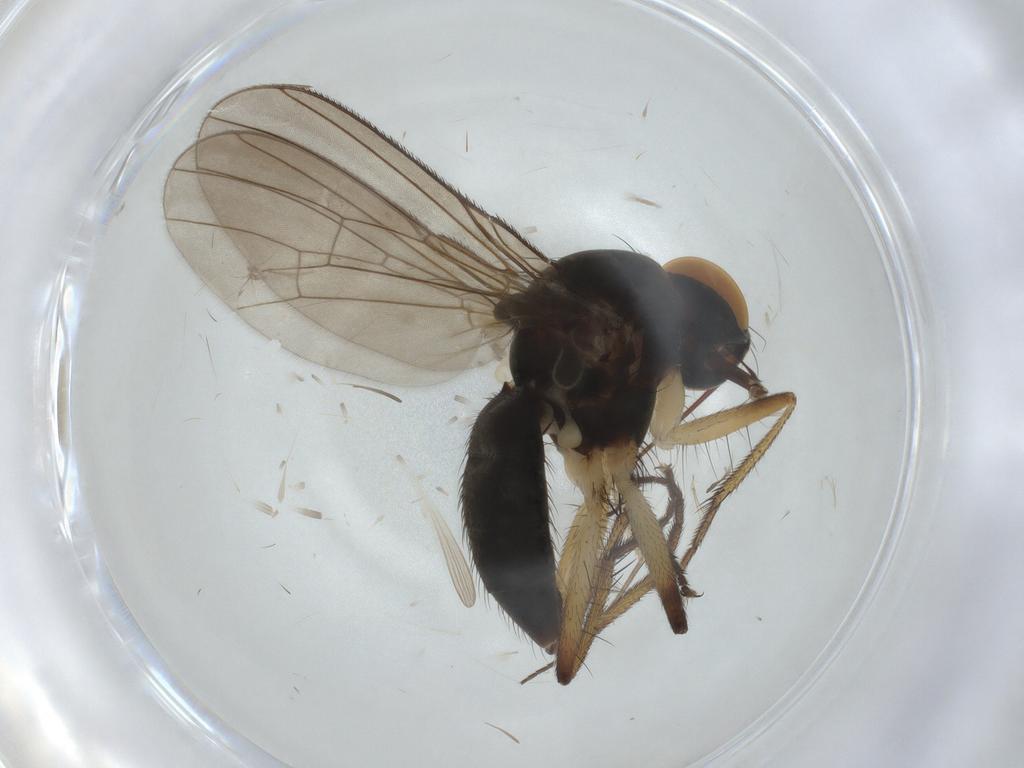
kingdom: Animalia
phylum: Arthropoda
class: Insecta
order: Diptera
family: Muscidae
